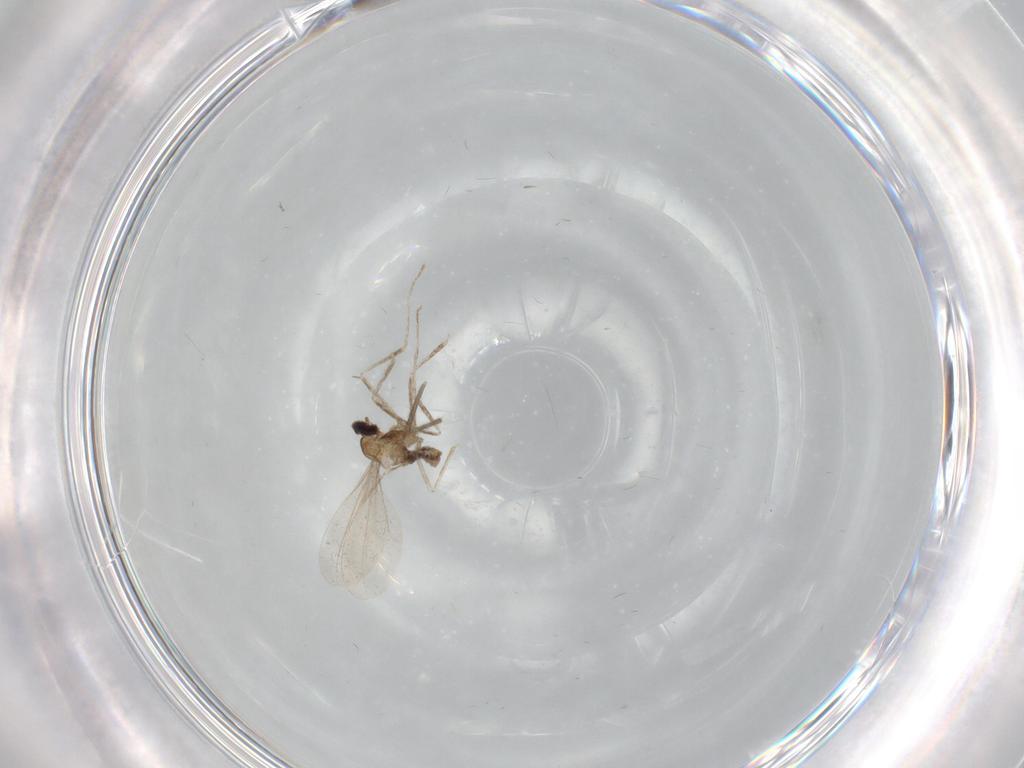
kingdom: Animalia
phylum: Arthropoda
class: Insecta
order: Diptera
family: Cecidomyiidae
